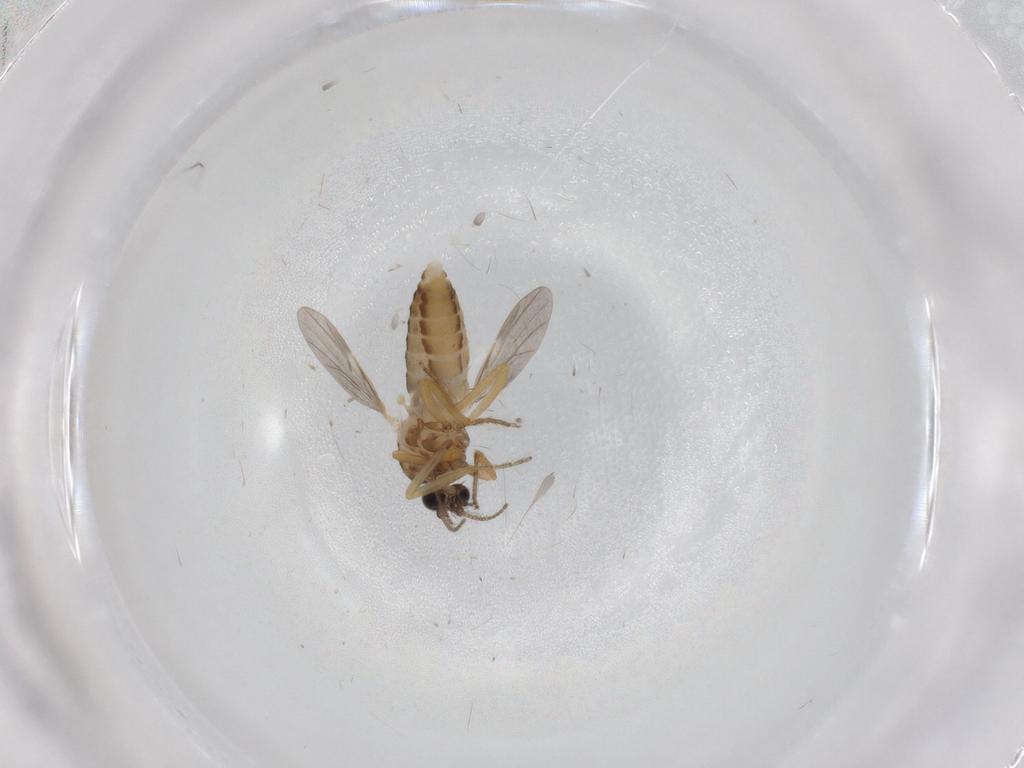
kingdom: Animalia
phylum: Arthropoda
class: Insecta
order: Diptera
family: Ceratopogonidae
